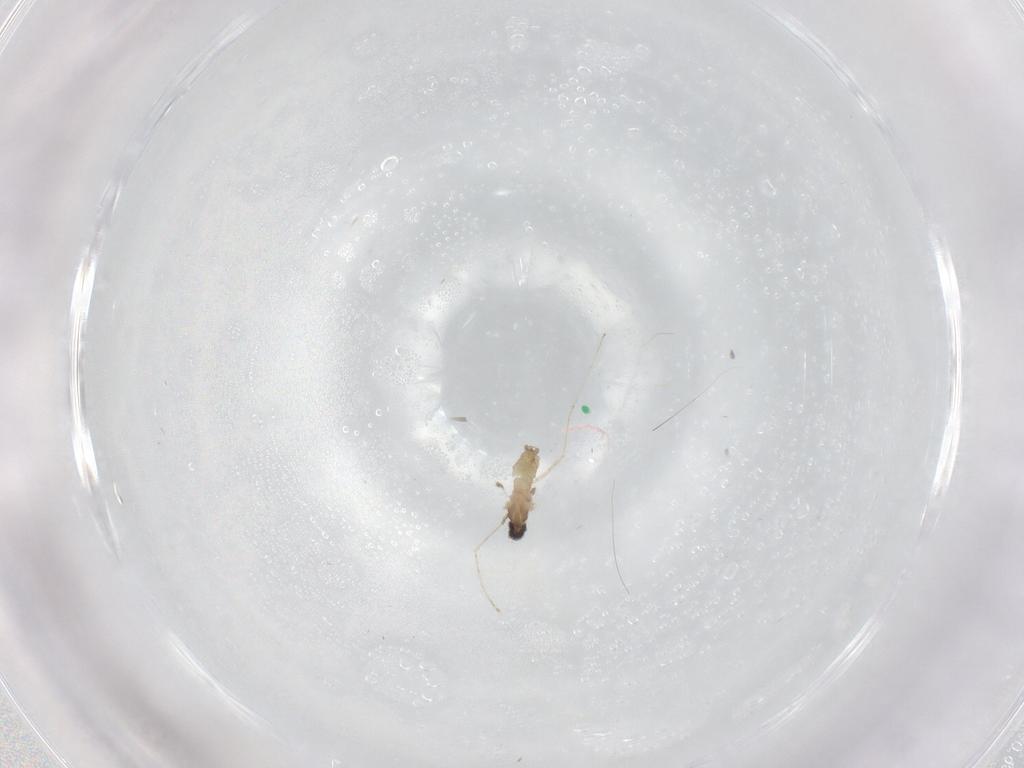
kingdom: Animalia
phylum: Arthropoda
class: Insecta
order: Diptera
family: Cecidomyiidae
